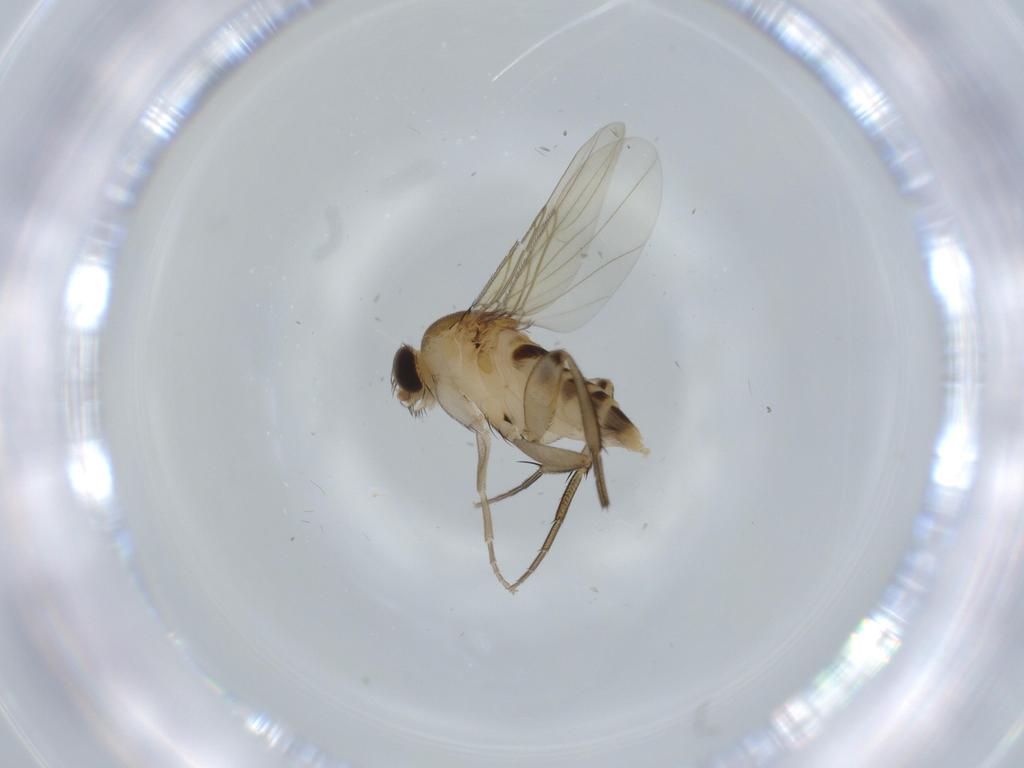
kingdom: Animalia
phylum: Arthropoda
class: Insecta
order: Diptera
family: Phoridae
